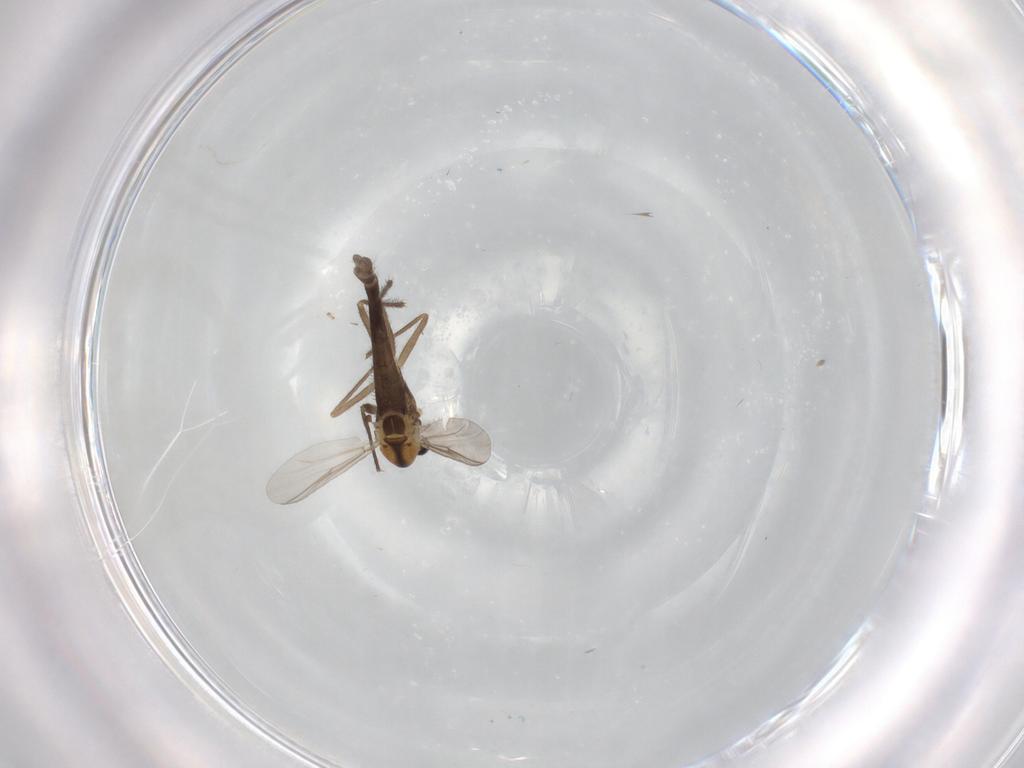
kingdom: Animalia
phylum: Arthropoda
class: Insecta
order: Diptera
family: Chironomidae
